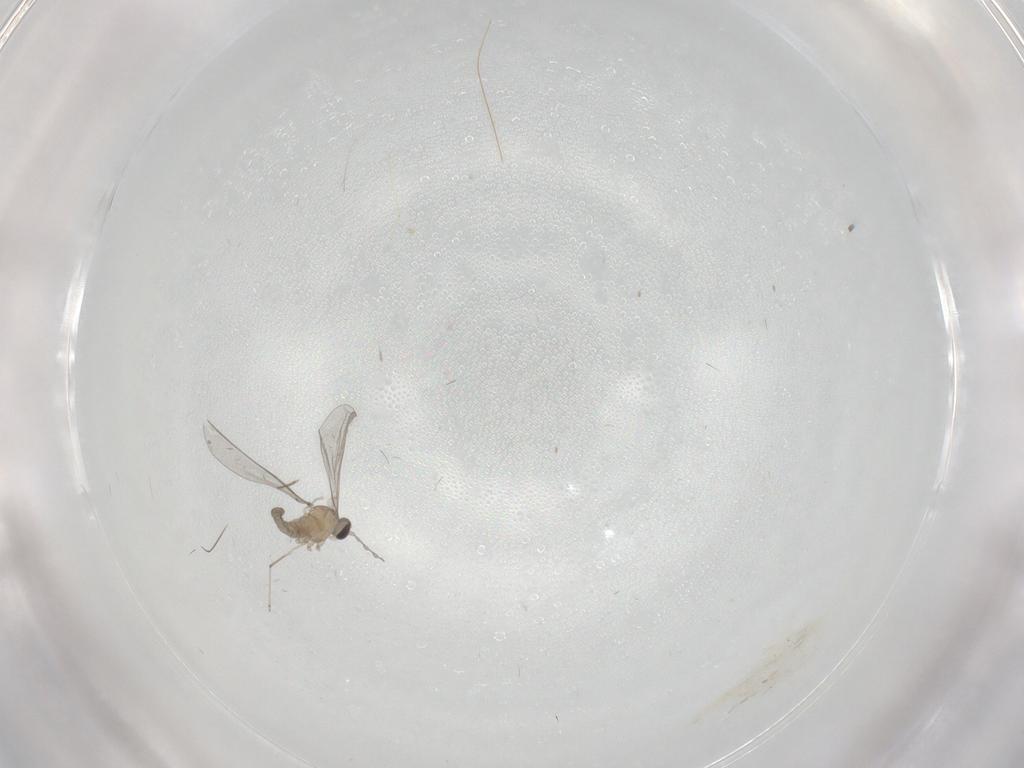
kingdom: Animalia
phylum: Arthropoda
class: Insecta
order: Diptera
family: Cecidomyiidae
